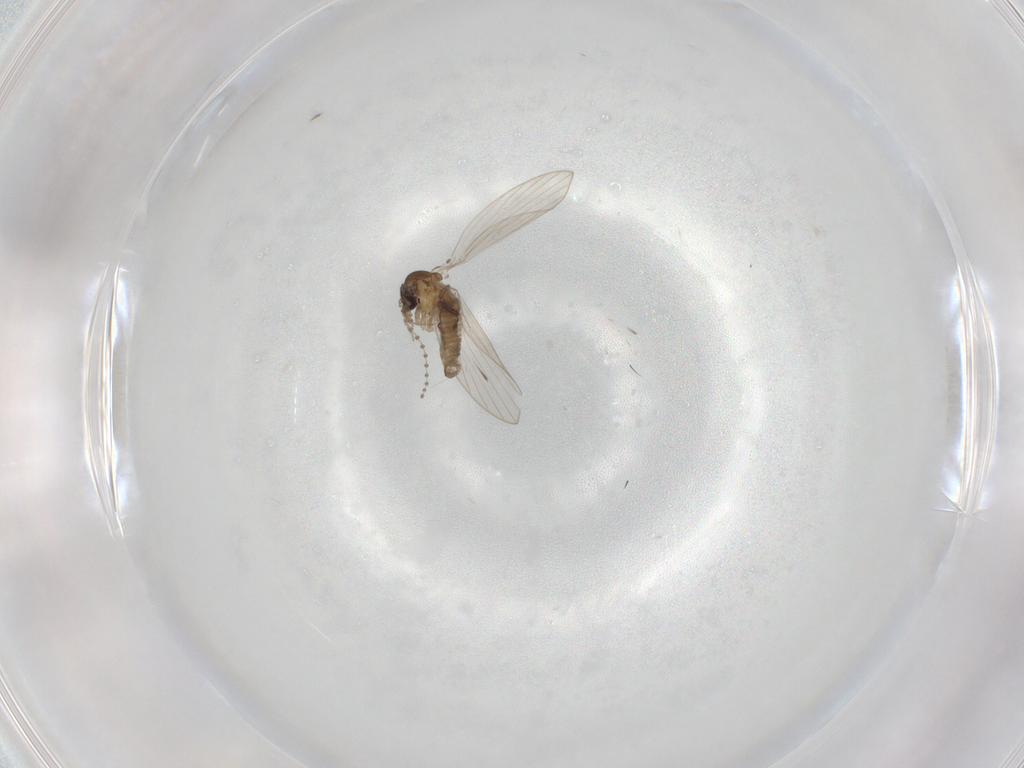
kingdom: Animalia
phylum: Arthropoda
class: Insecta
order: Diptera
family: Psychodidae
